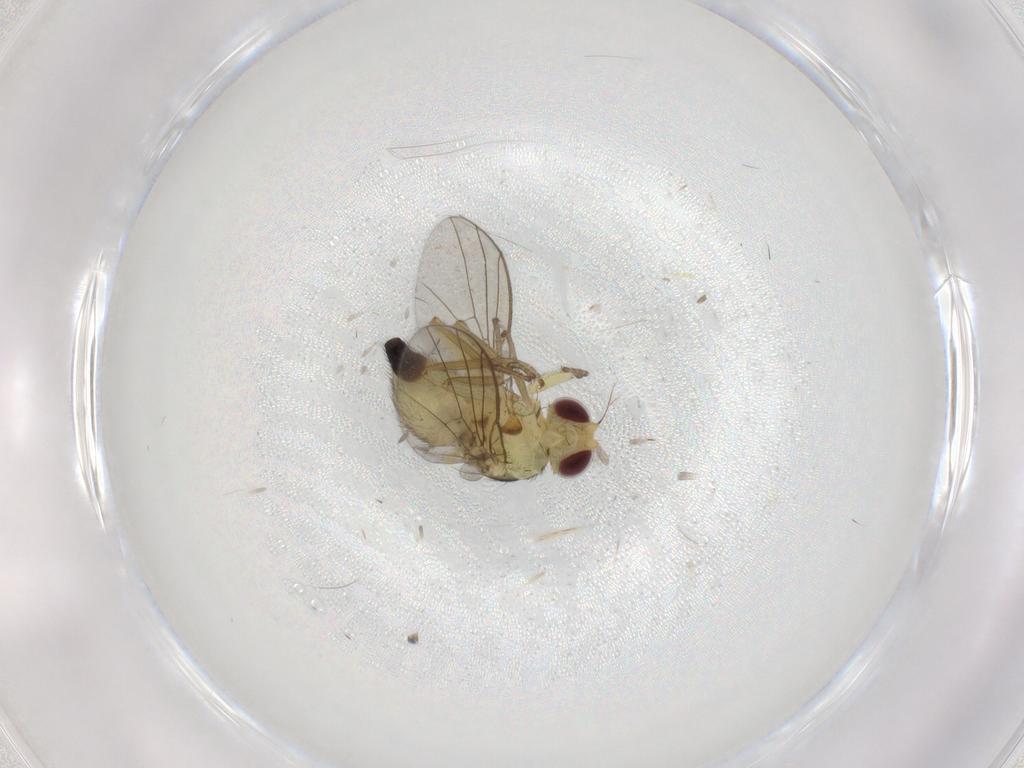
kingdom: Animalia
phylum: Arthropoda
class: Insecta
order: Diptera
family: Agromyzidae
